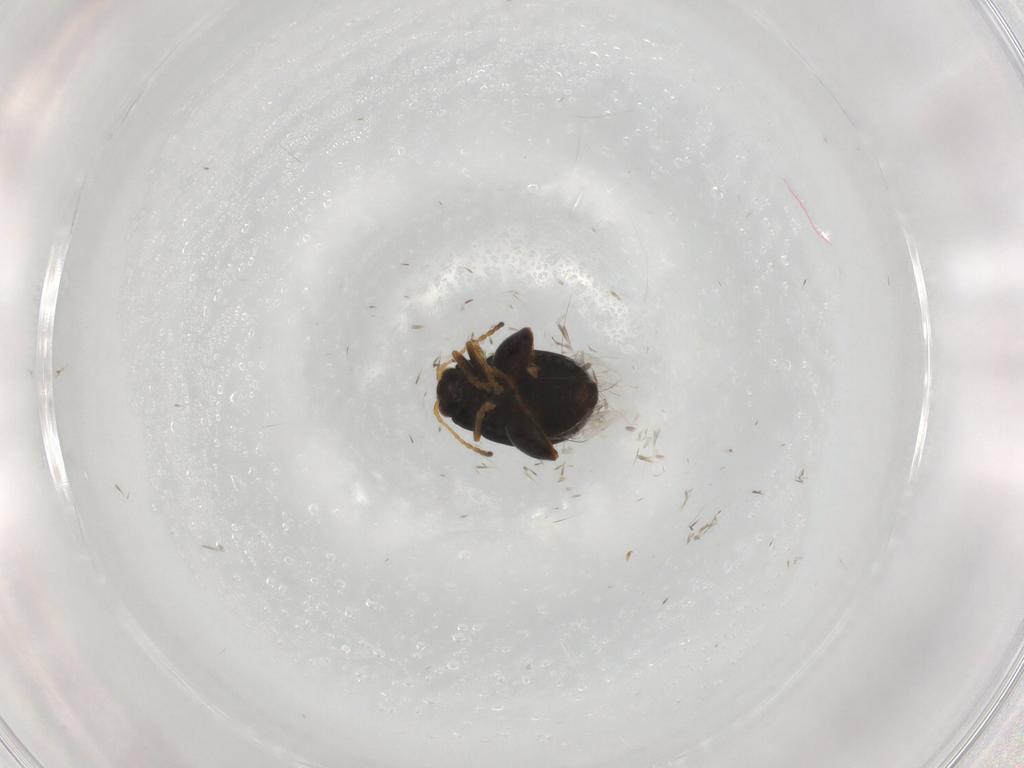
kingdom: Animalia
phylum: Arthropoda
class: Insecta
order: Coleoptera
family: Chrysomelidae
